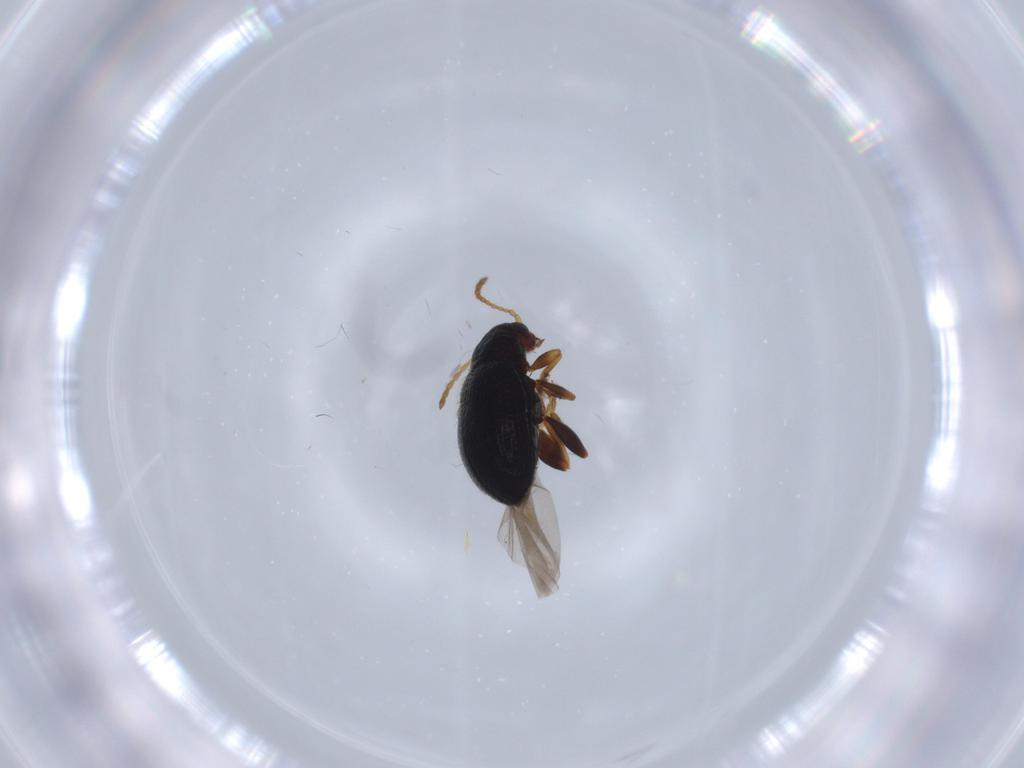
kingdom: Animalia
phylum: Arthropoda
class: Insecta
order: Coleoptera
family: Chrysomelidae
